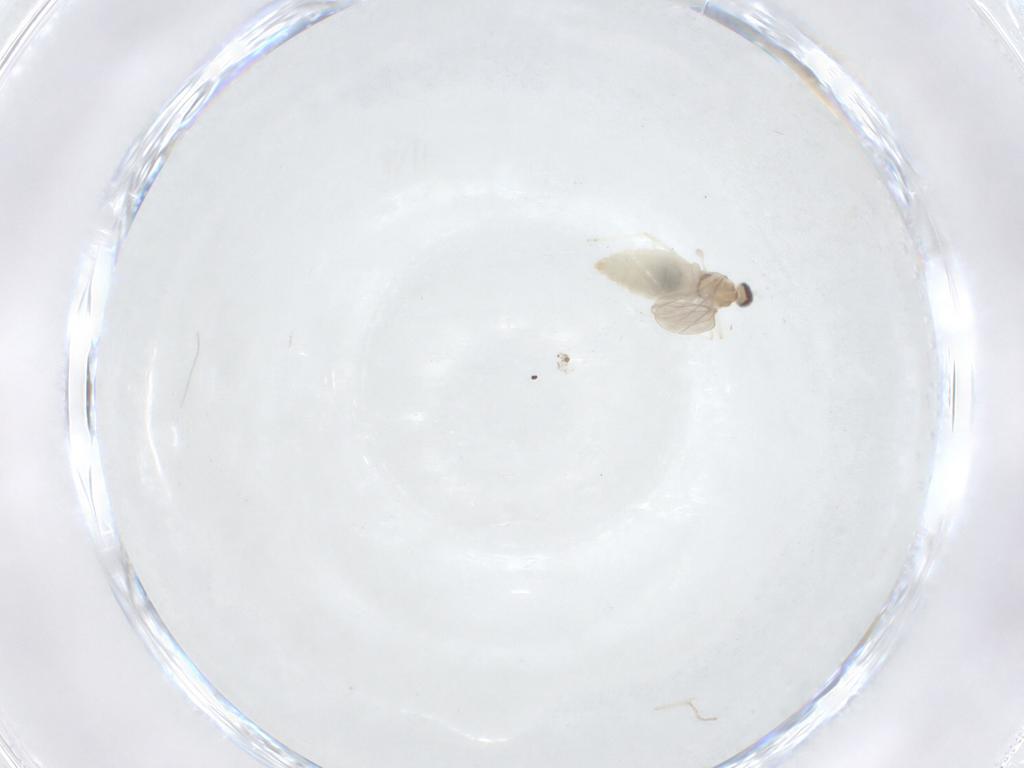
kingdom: Animalia
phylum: Arthropoda
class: Insecta
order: Diptera
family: Cecidomyiidae
